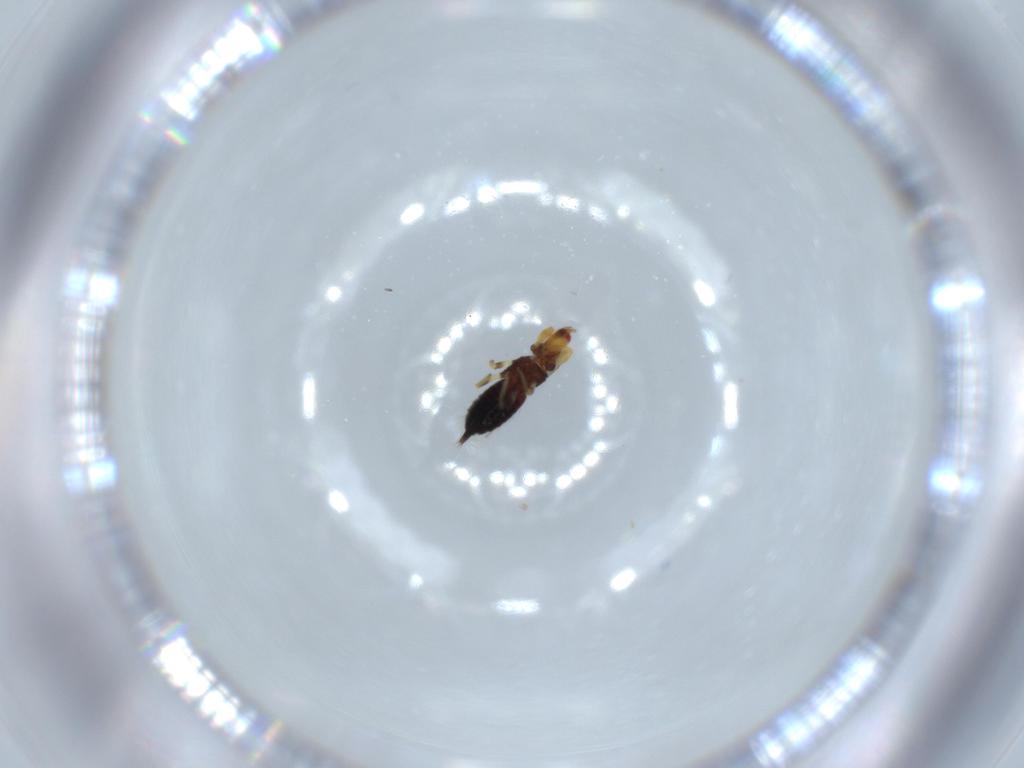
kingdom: Animalia
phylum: Arthropoda
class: Insecta
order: Thysanoptera
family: Phlaeothripidae
